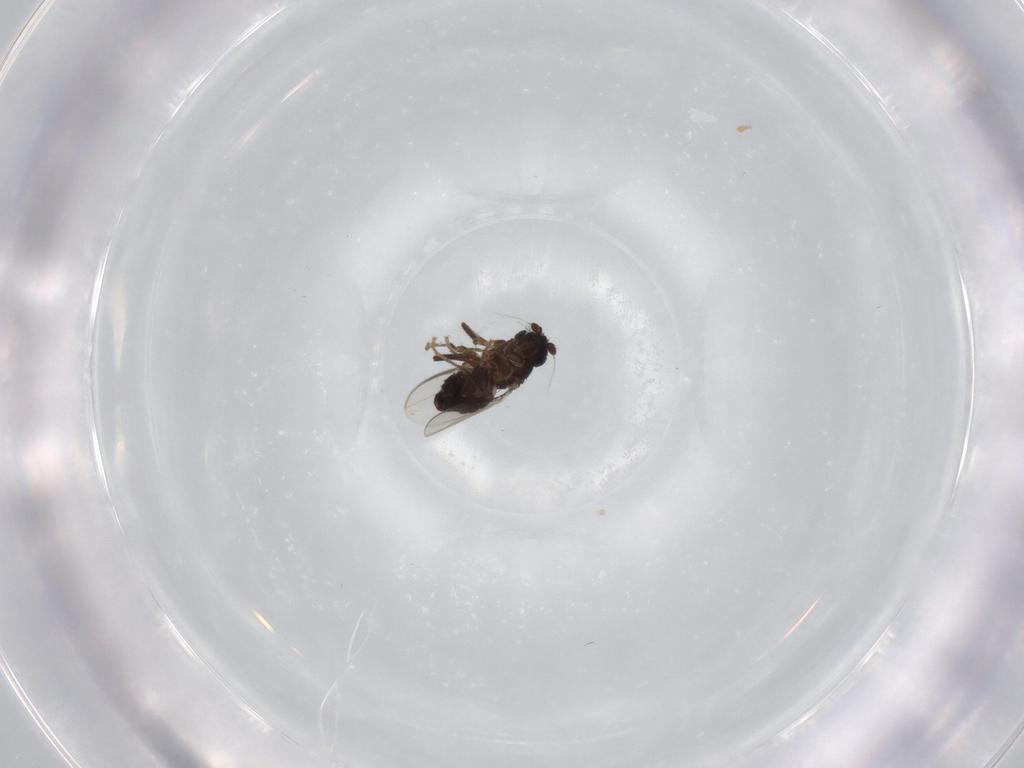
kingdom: Animalia
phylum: Arthropoda
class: Insecta
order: Diptera
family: Sphaeroceridae
